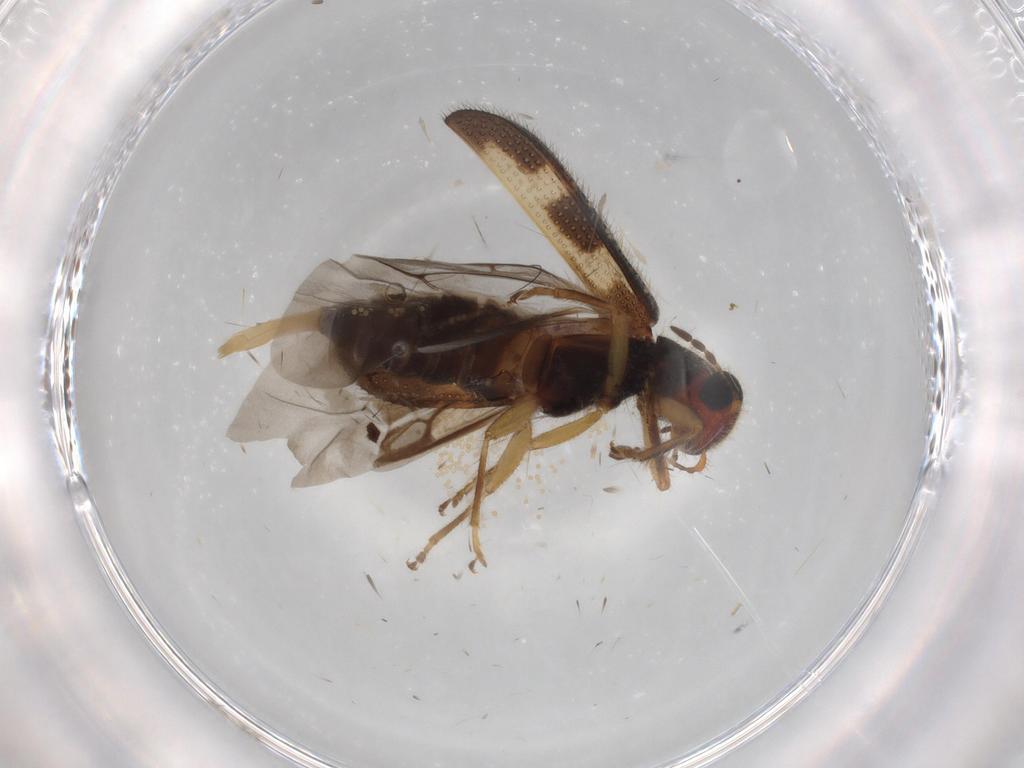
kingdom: Animalia
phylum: Arthropoda
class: Insecta
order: Coleoptera
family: Cleridae
